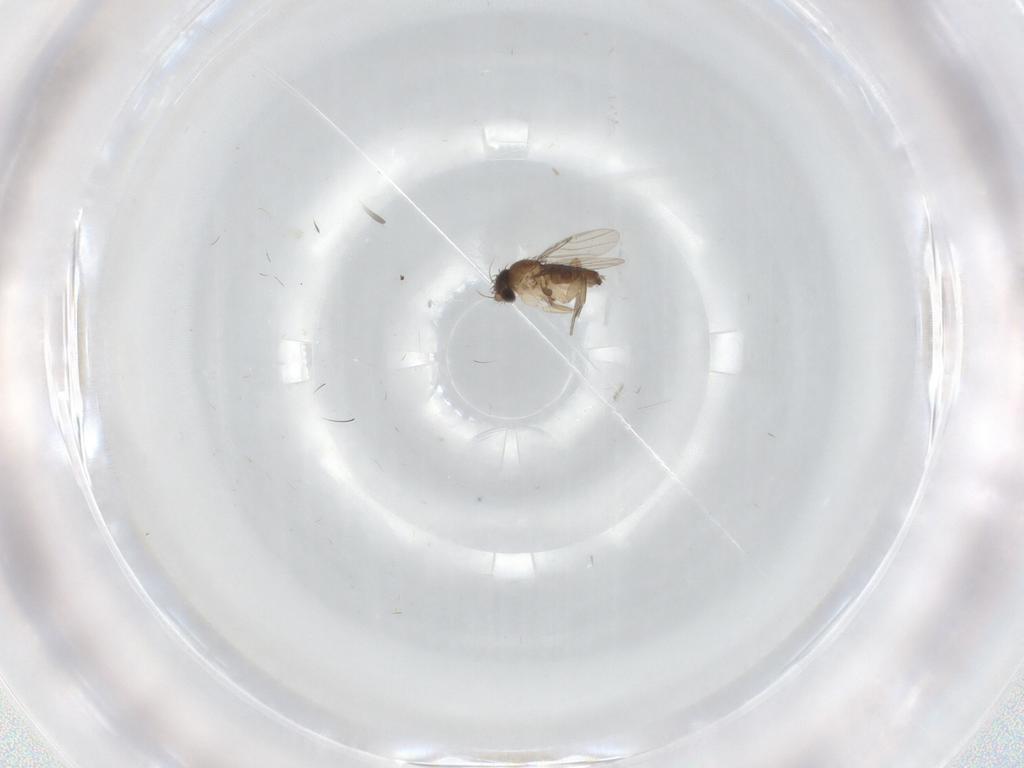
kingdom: Animalia
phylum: Arthropoda
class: Insecta
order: Diptera
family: Phoridae
